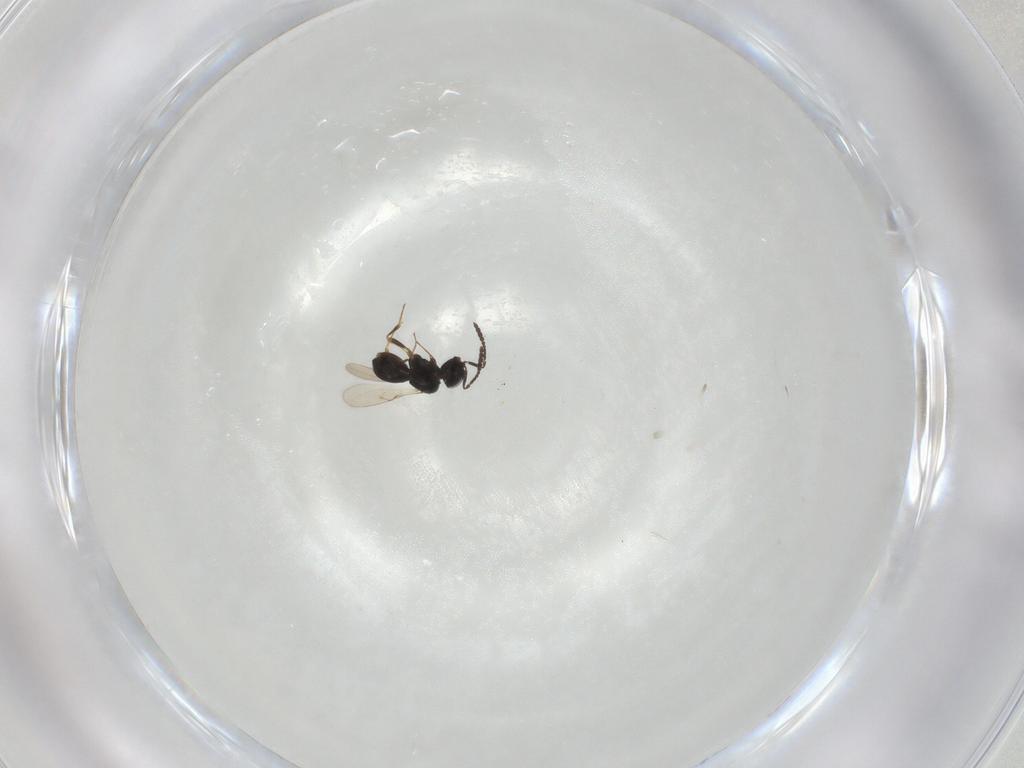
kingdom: Animalia
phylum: Arthropoda
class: Insecta
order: Hymenoptera
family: Scelionidae
